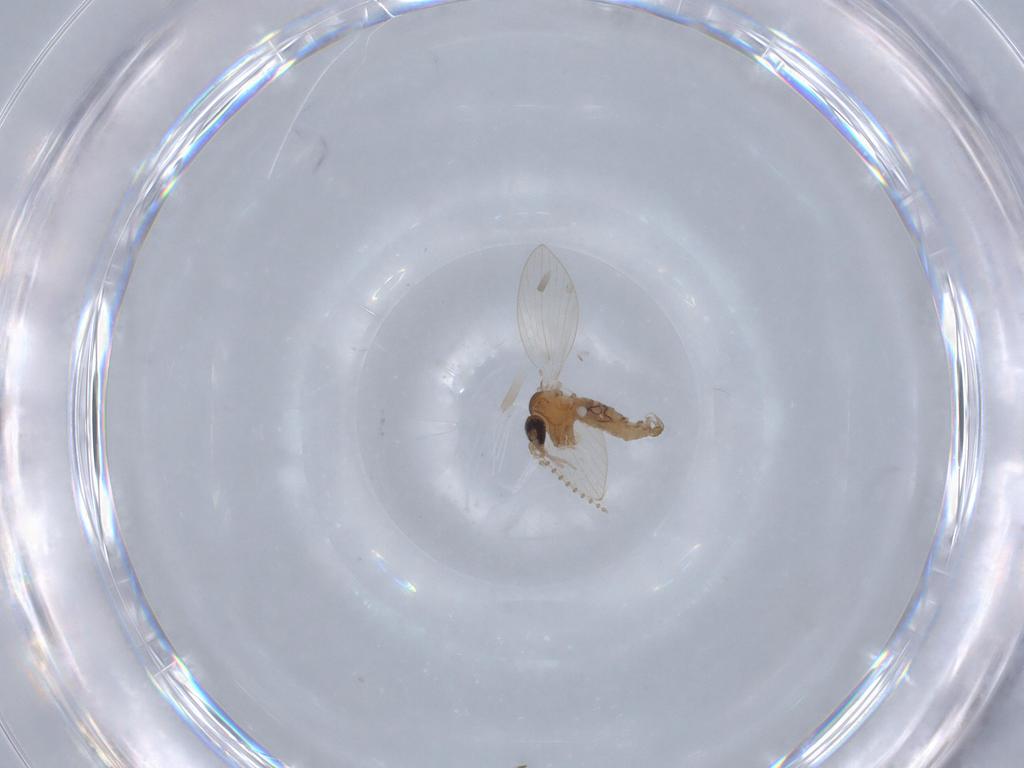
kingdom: Animalia
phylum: Arthropoda
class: Insecta
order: Diptera
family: Psychodidae
